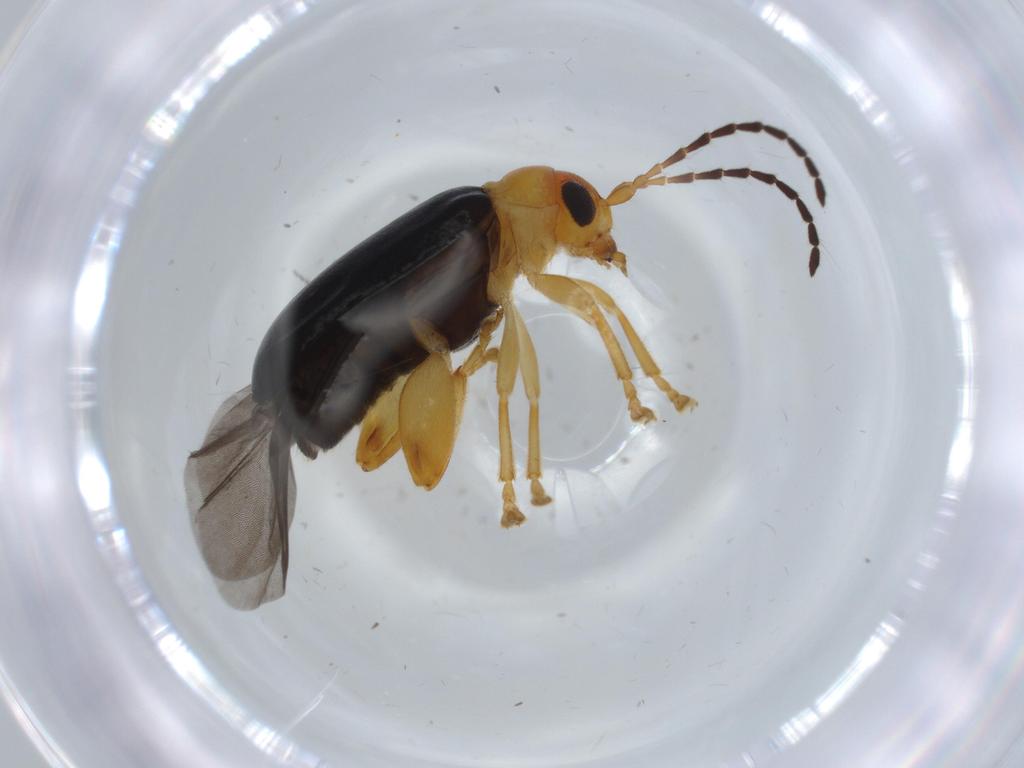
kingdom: Animalia
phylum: Arthropoda
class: Insecta
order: Coleoptera
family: Chrysomelidae
